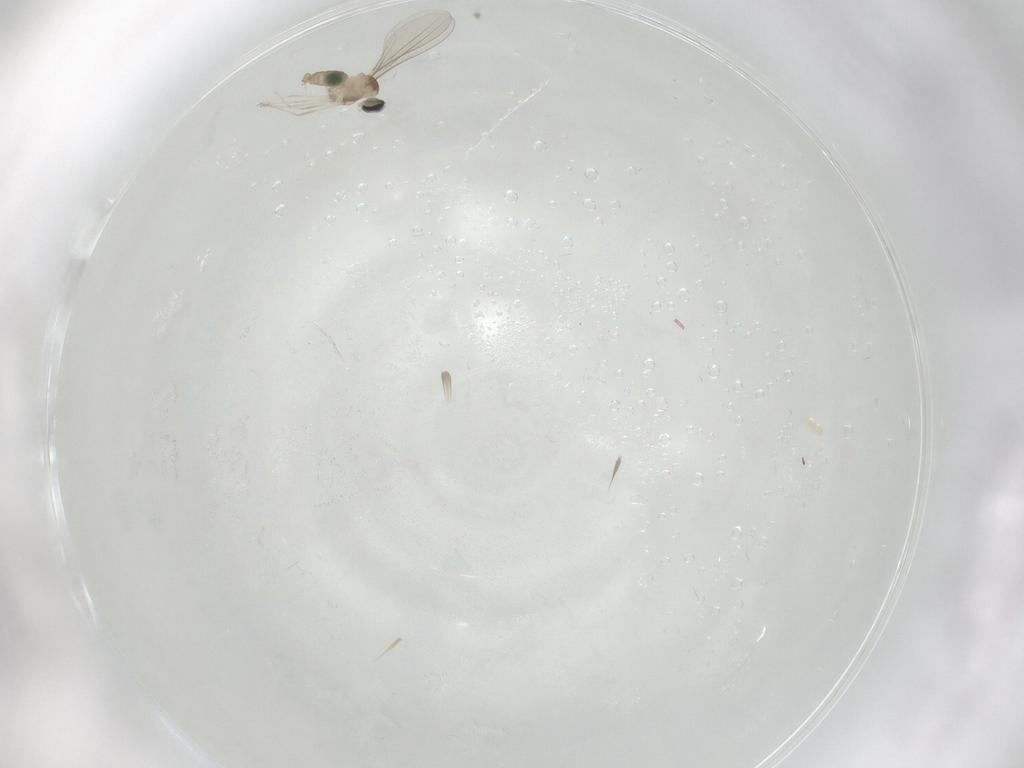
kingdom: Animalia
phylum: Arthropoda
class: Insecta
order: Diptera
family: Cecidomyiidae
